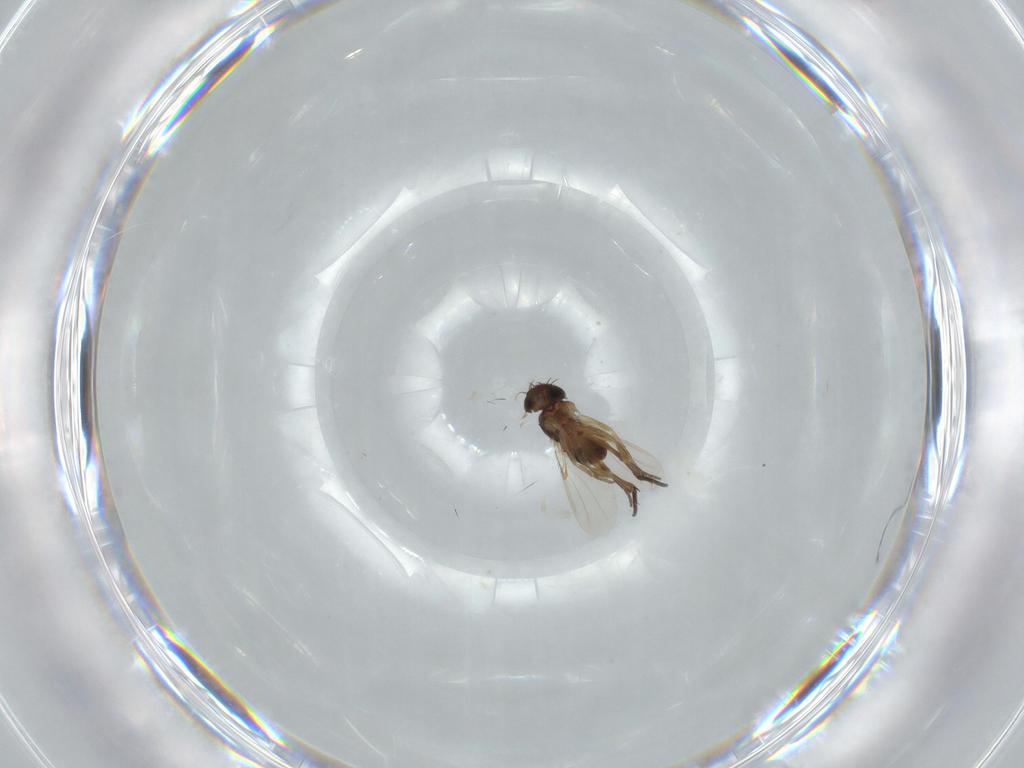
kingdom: Animalia
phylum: Arthropoda
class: Insecta
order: Diptera
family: Phoridae
